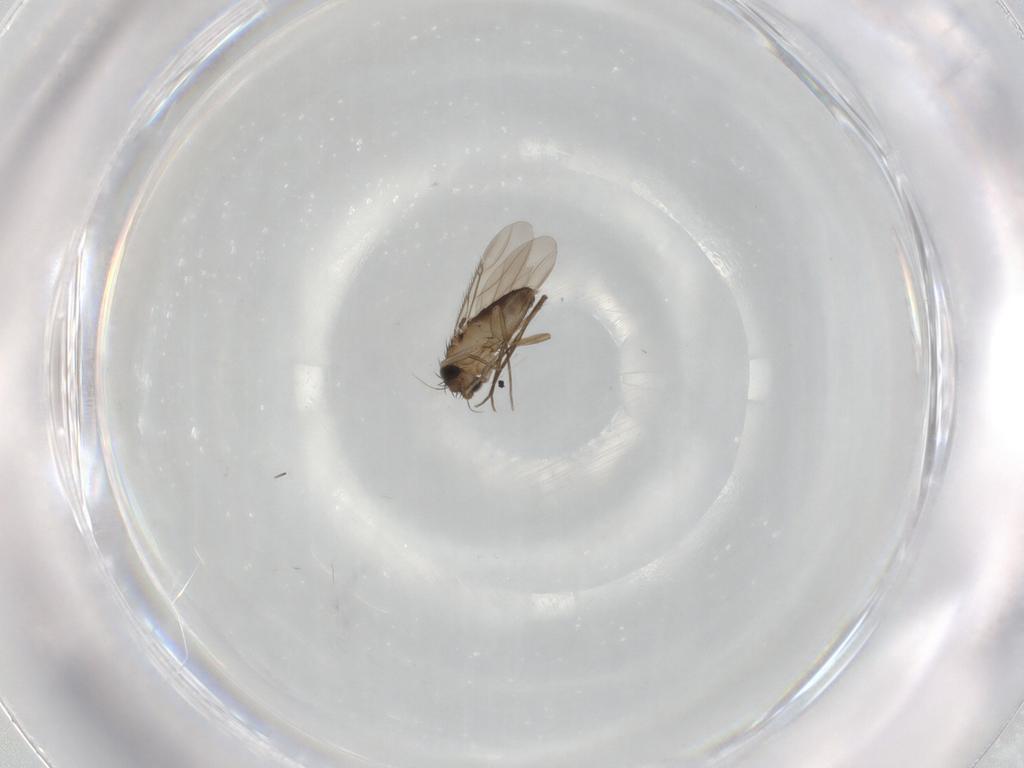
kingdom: Animalia
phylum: Arthropoda
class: Insecta
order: Diptera
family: Phoridae
